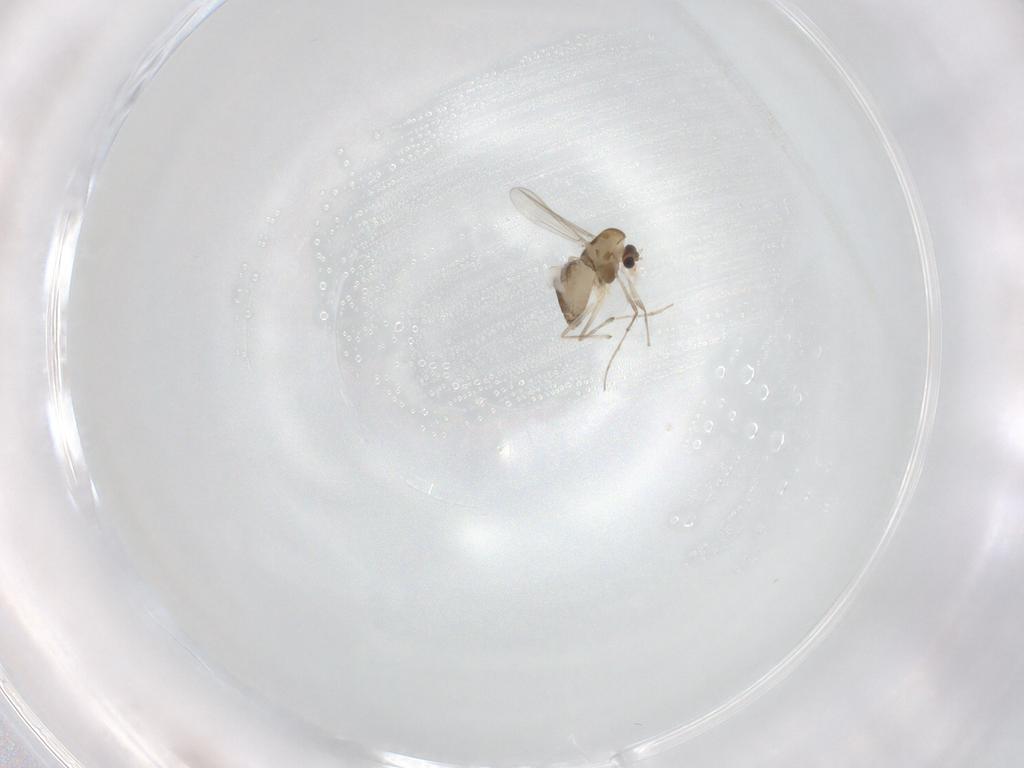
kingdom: Animalia
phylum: Arthropoda
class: Insecta
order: Diptera
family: Chironomidae
